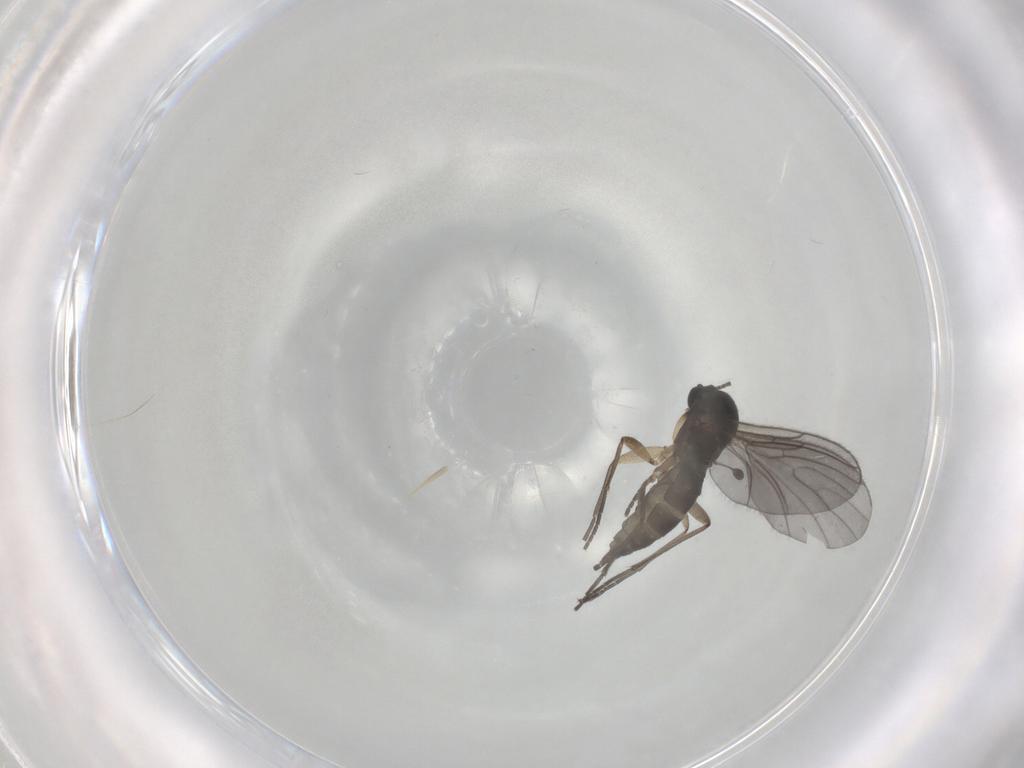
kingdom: Animalia
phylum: Arthropoda
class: Insecta
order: Diptera
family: Sciaridae
